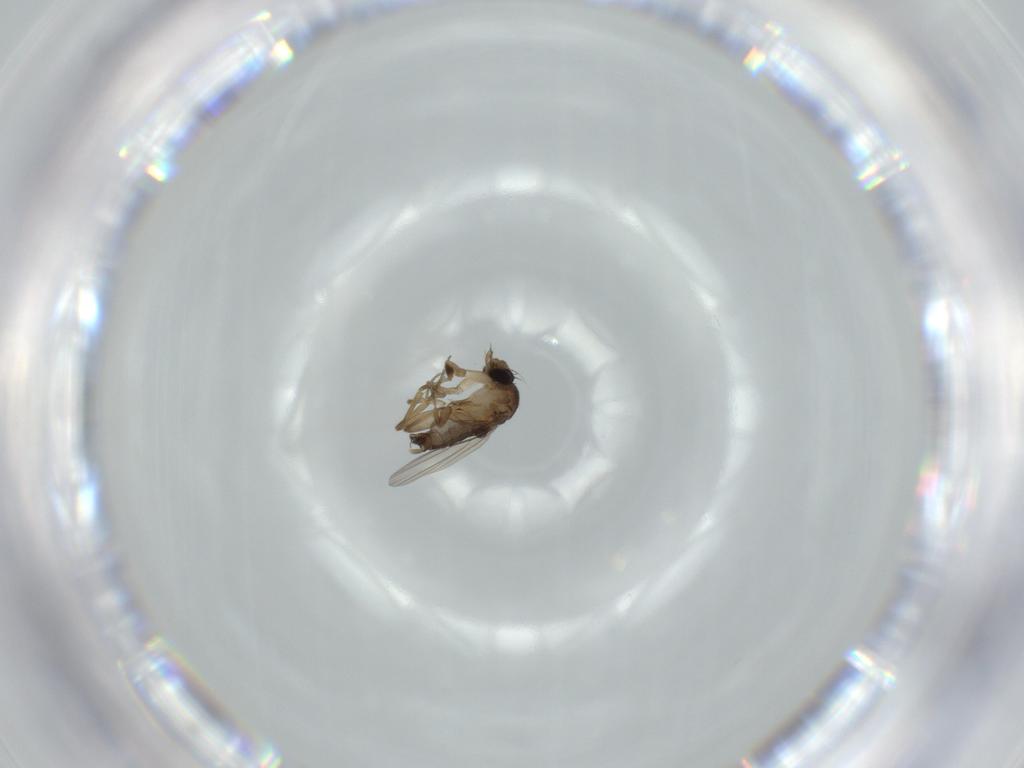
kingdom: Animalia
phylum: Arthropoda
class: Insecta
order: Diptera
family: Phoridae
